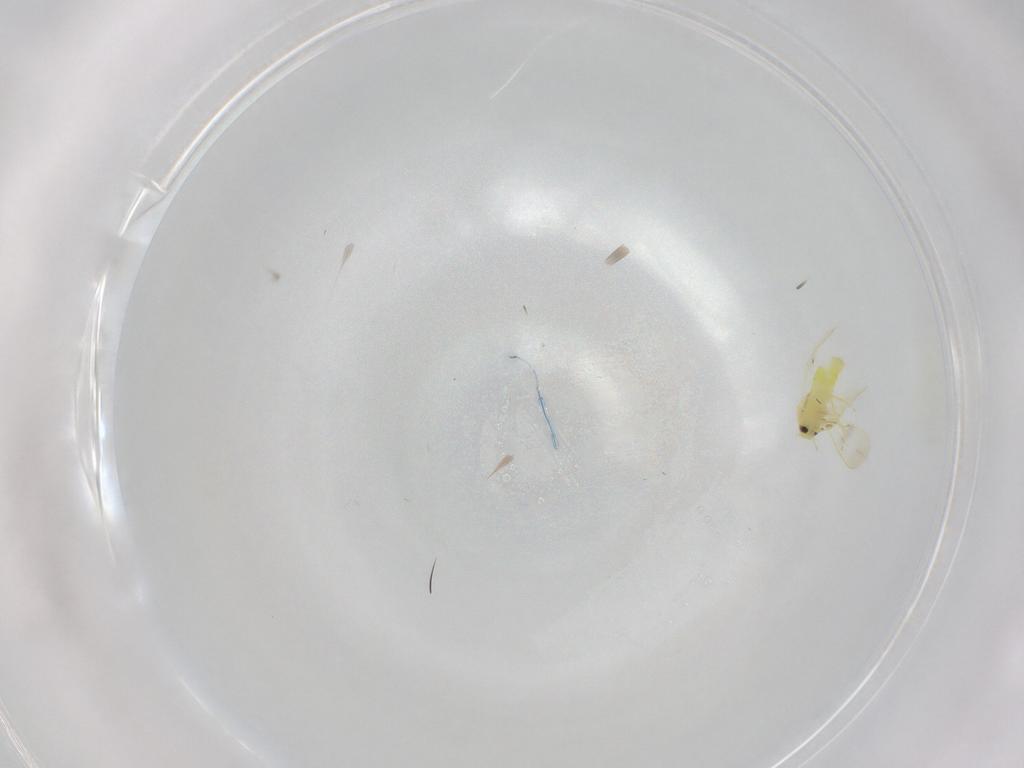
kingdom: Animalia
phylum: Arthropoda
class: Insecta
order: Hemiptera
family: Aleyrodidae
